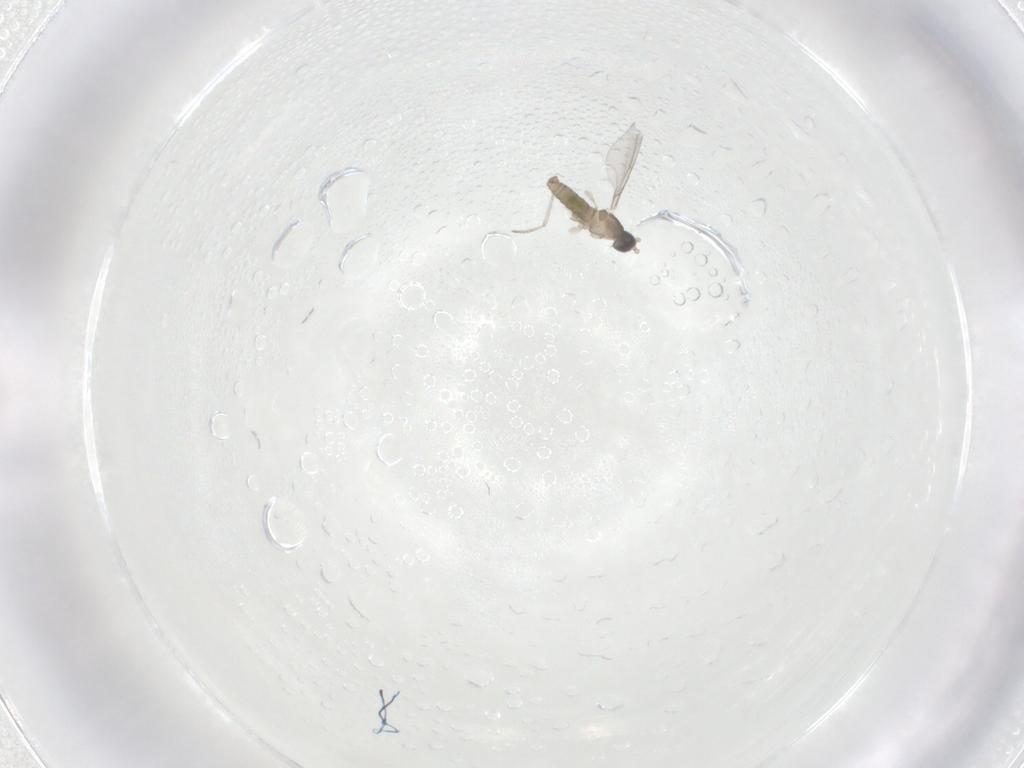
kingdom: Animalia
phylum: Arthropoda
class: Insecta
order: Diptera
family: Cecidomyiidae
